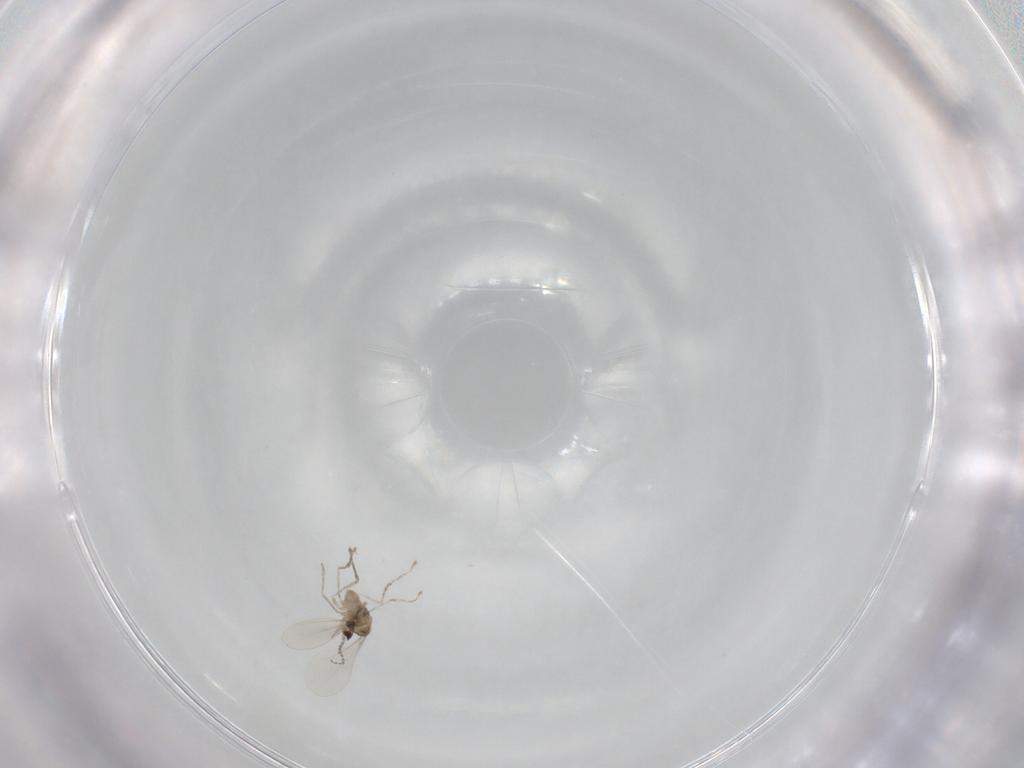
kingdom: Animalia
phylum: Arthropoda
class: Insecta
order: Diptera
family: Cecidomyiidae
